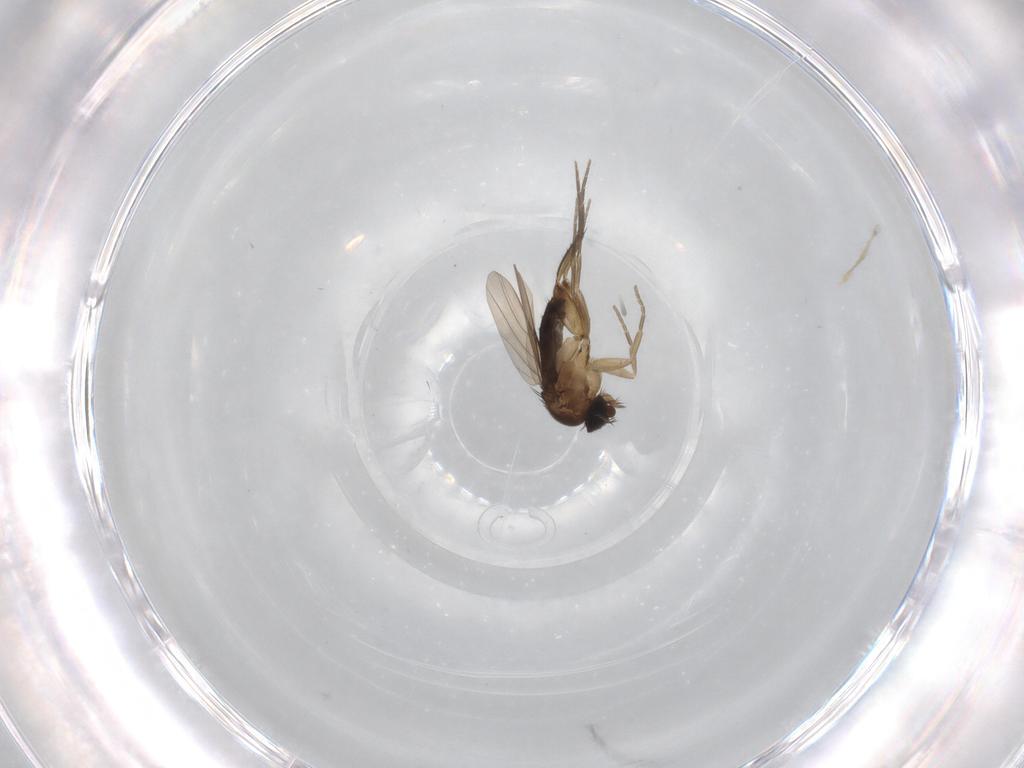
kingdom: Animalia
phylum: Arthropoda
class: Insecta
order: Diptera
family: Phoridae
